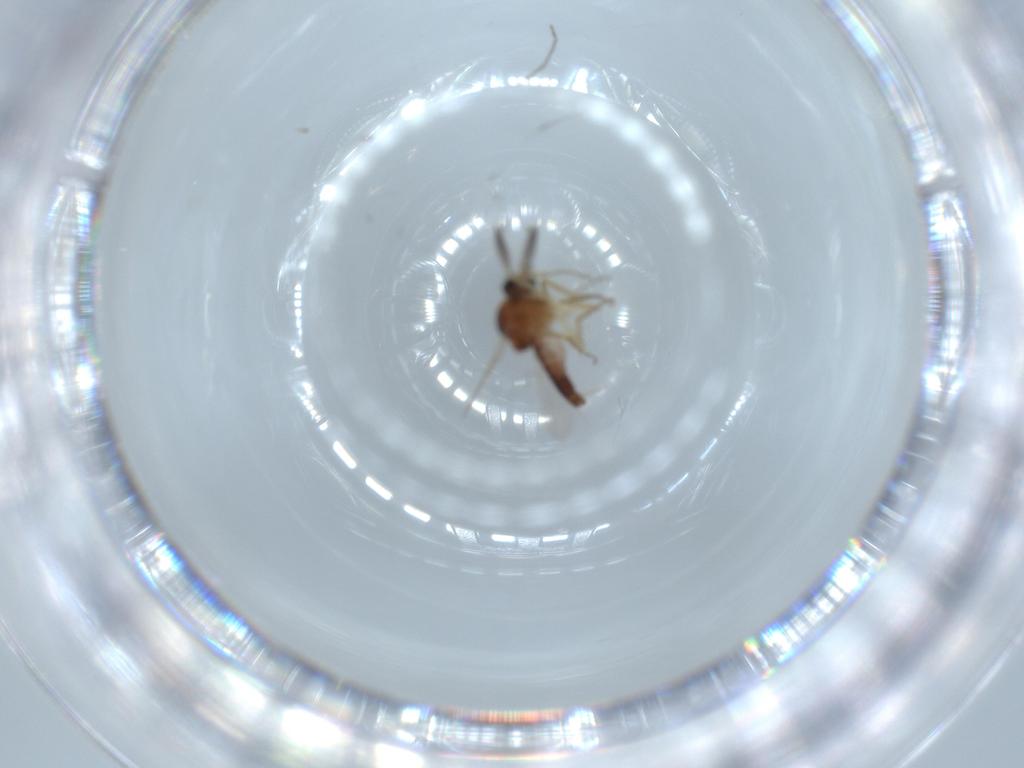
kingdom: Animalia
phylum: Arthropoda
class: Insecta
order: Diptera
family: Ceratopogonidae
